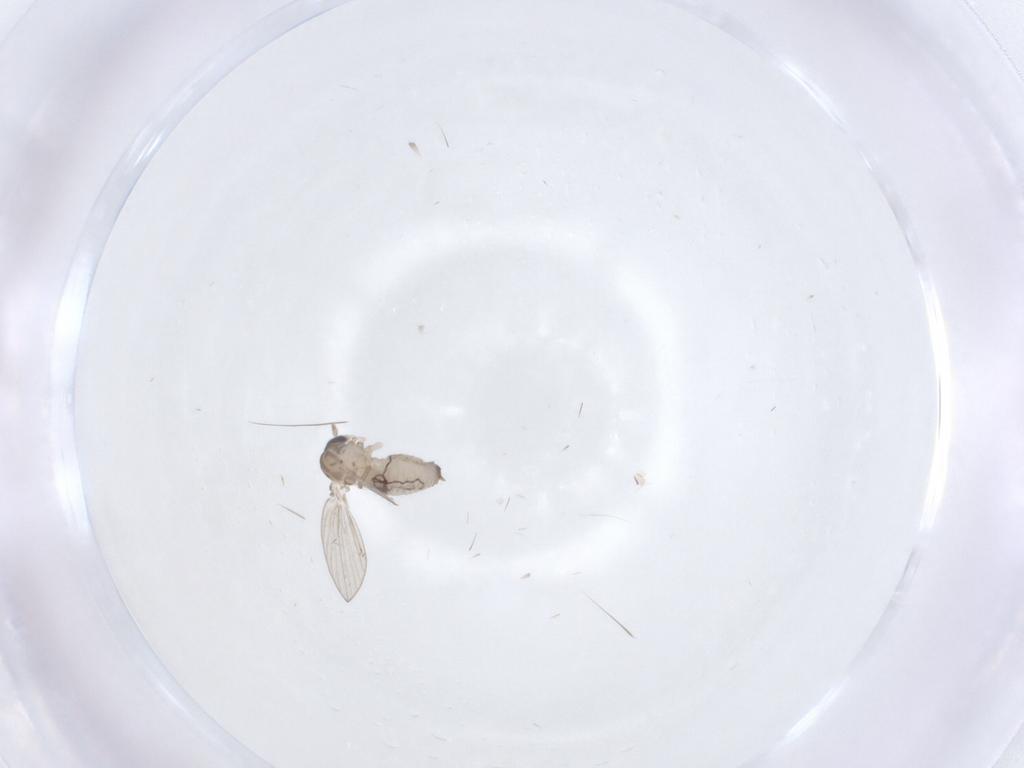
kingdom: Animalia
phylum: Arthropoda
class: Insecta
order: Diptera
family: Psychodidae
